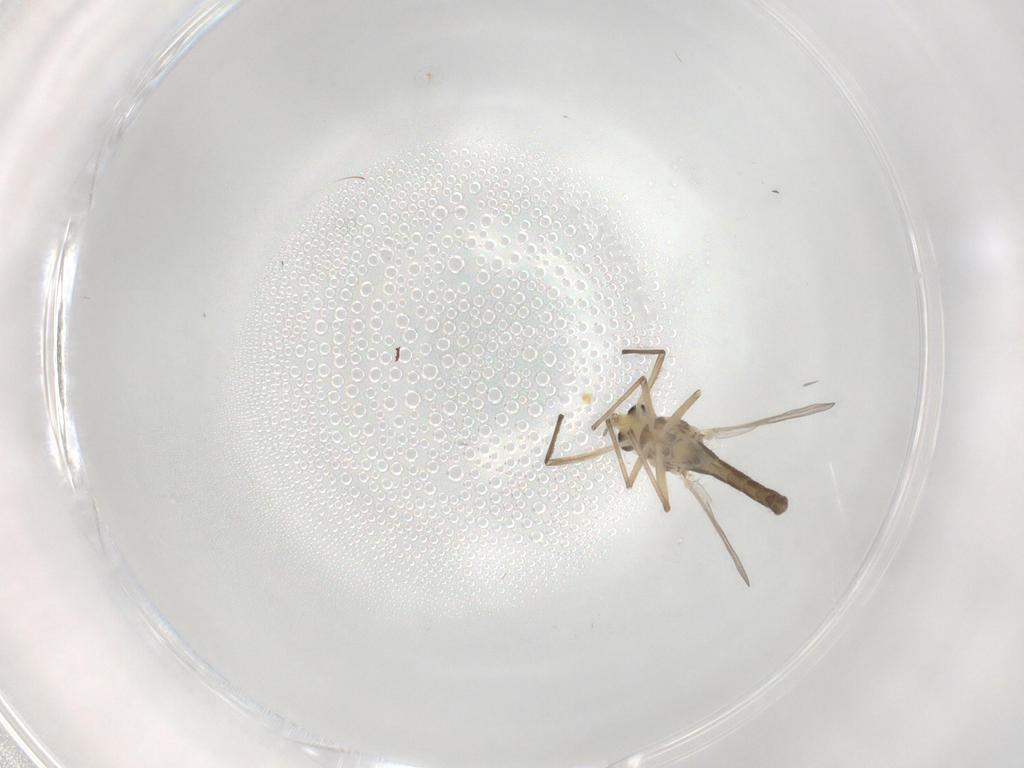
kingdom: Animalia
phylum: Arthropoda
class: Insecta
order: Diptera
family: Chironomidae
